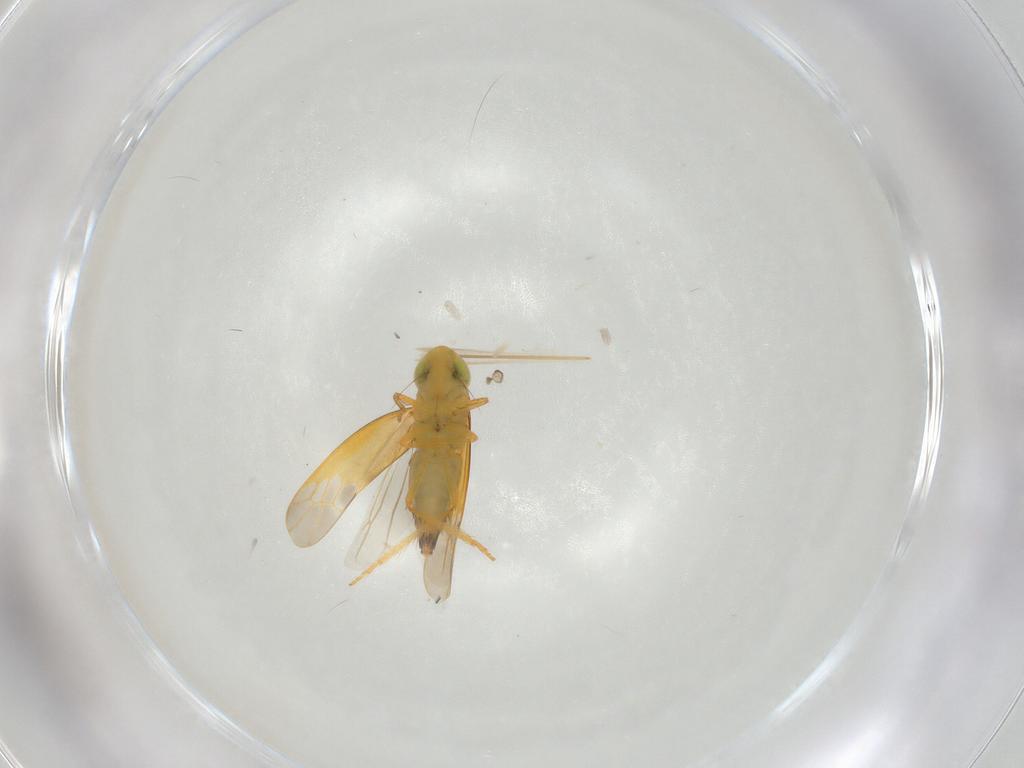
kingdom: Animalia
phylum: Arthropoda
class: Insecta
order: Hemiptera
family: Cicadellidae
